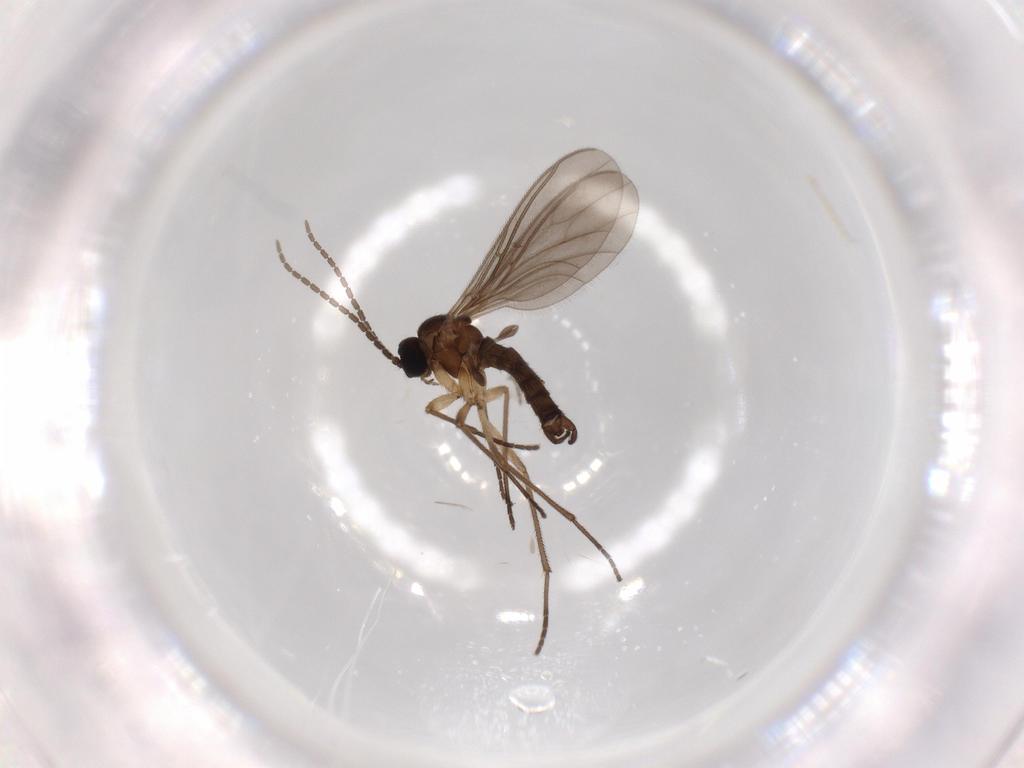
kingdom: Animalia
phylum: Arthropoda
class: Insecta
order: Diptera
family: Sciaridae
